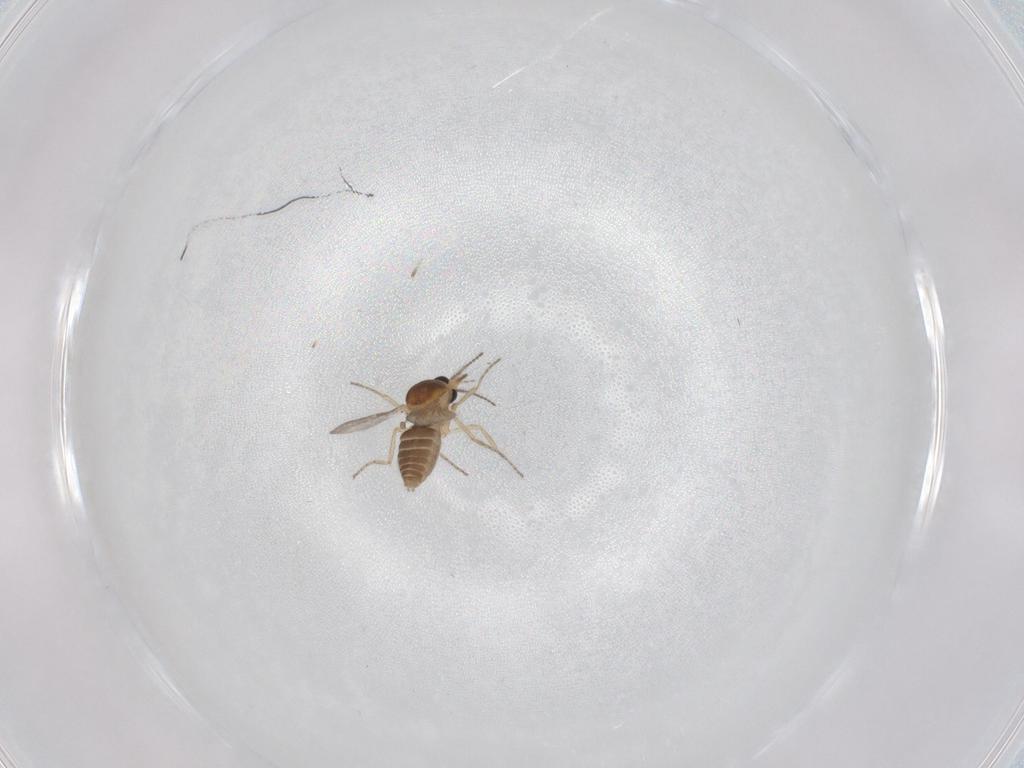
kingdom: Animalia
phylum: Arthropoda
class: Insecta
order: Diptera
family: Ceratopogonidae
